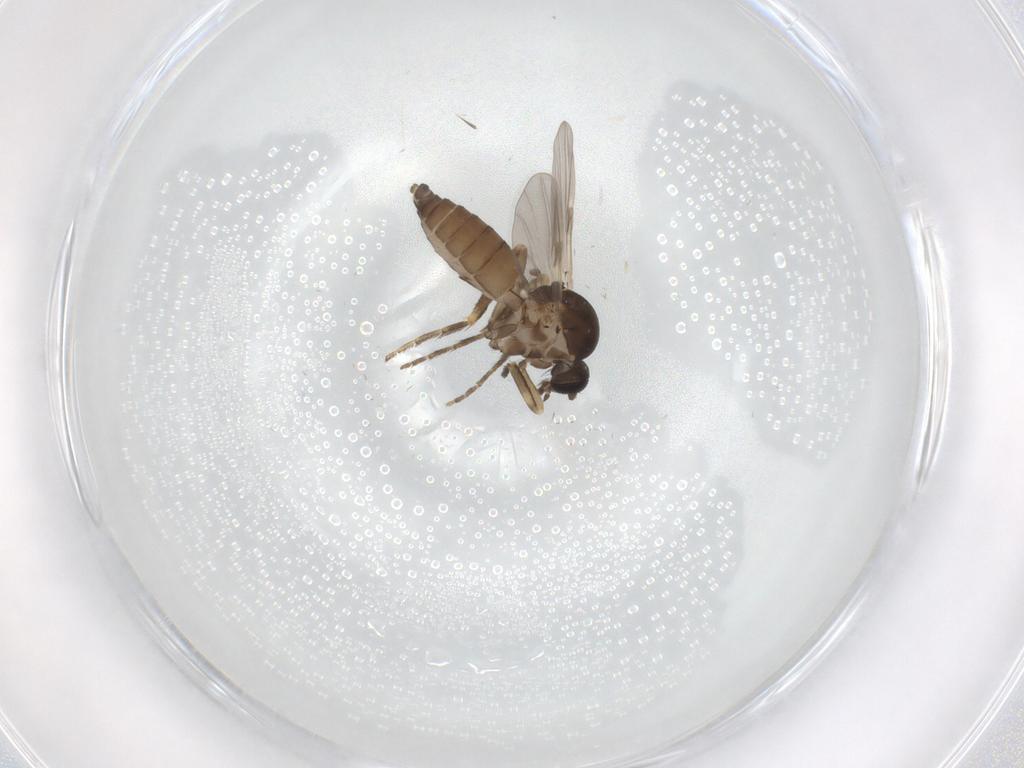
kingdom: Animalia
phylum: Arthropoda
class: Insecta
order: Diptera
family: Ceratopogonidae
